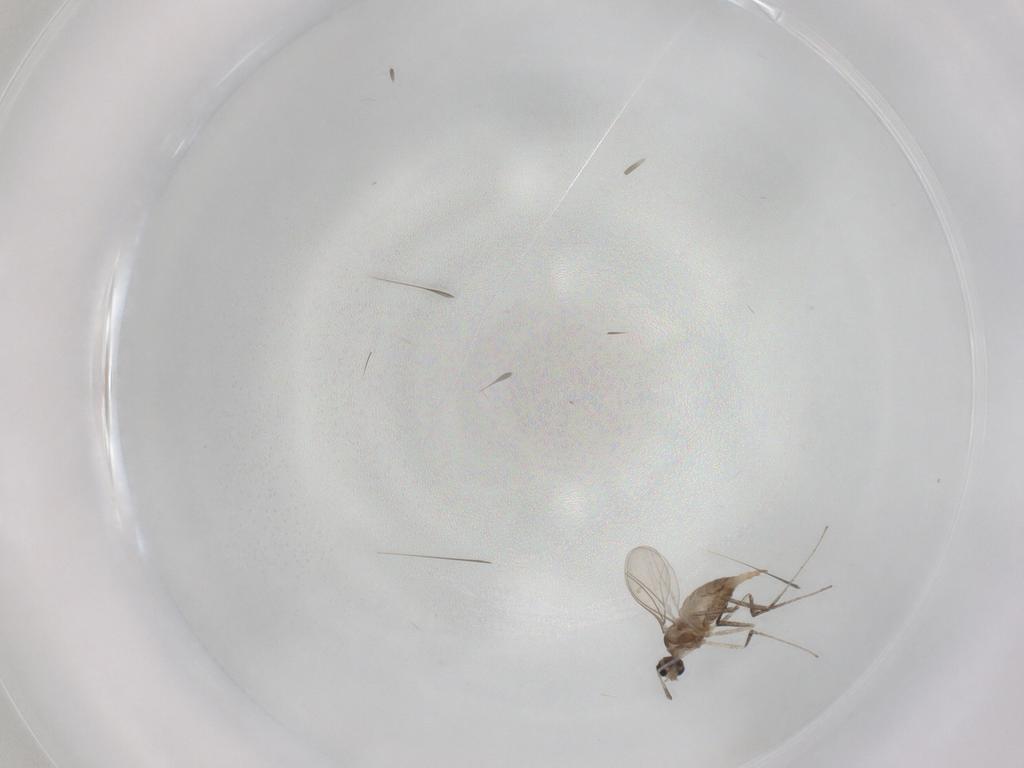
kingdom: Animalia
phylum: Arthropoda
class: Insecta
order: Diptera
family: Cecidomyiidae
